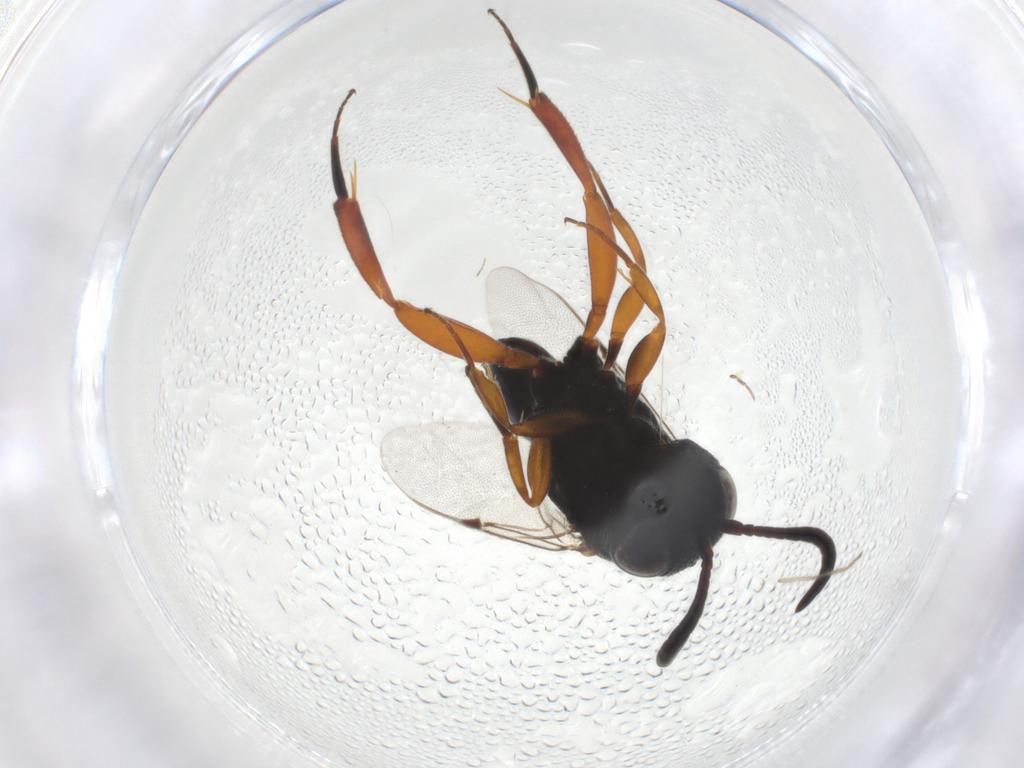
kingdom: Animalia
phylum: Arthropoda
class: Insecta
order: Hymenoptera
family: Evaniidae
